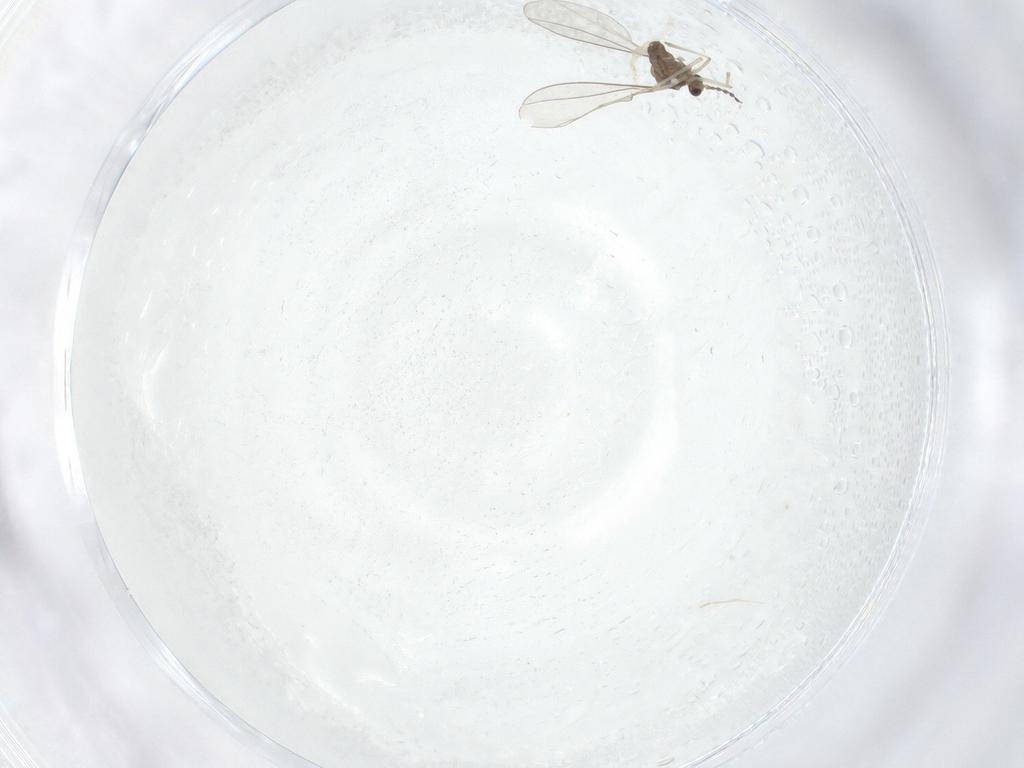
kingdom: Animalia
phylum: Arthropoda
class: Insecta
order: Diptera
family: Cecidomyiidae
